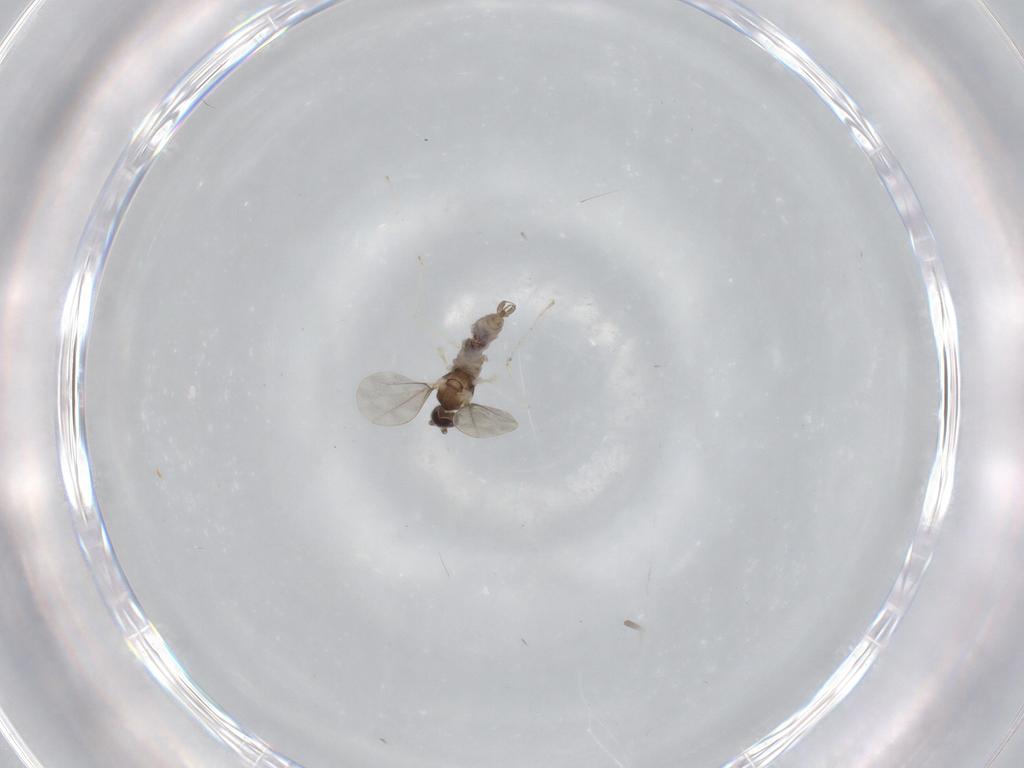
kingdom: Animalia
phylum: Arthropoda
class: Insecta
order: Diptera
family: Cecidomyiidae
